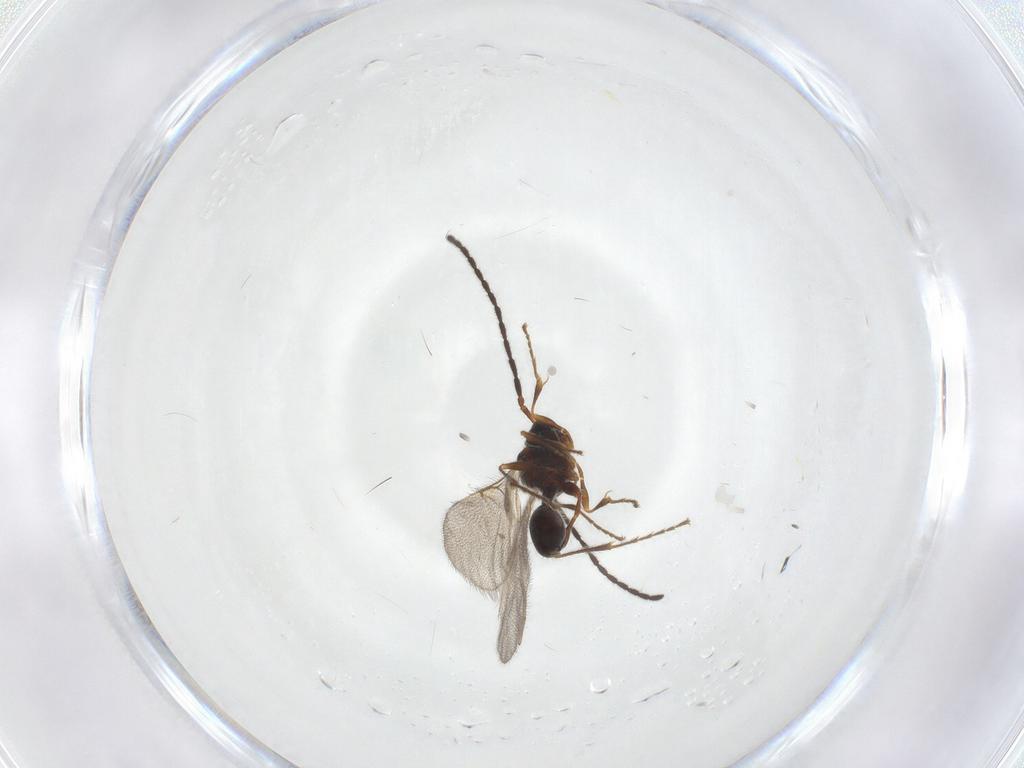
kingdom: Animalia
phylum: Arthropoda
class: Insecta
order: Hymenoptera
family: Diapriidae
